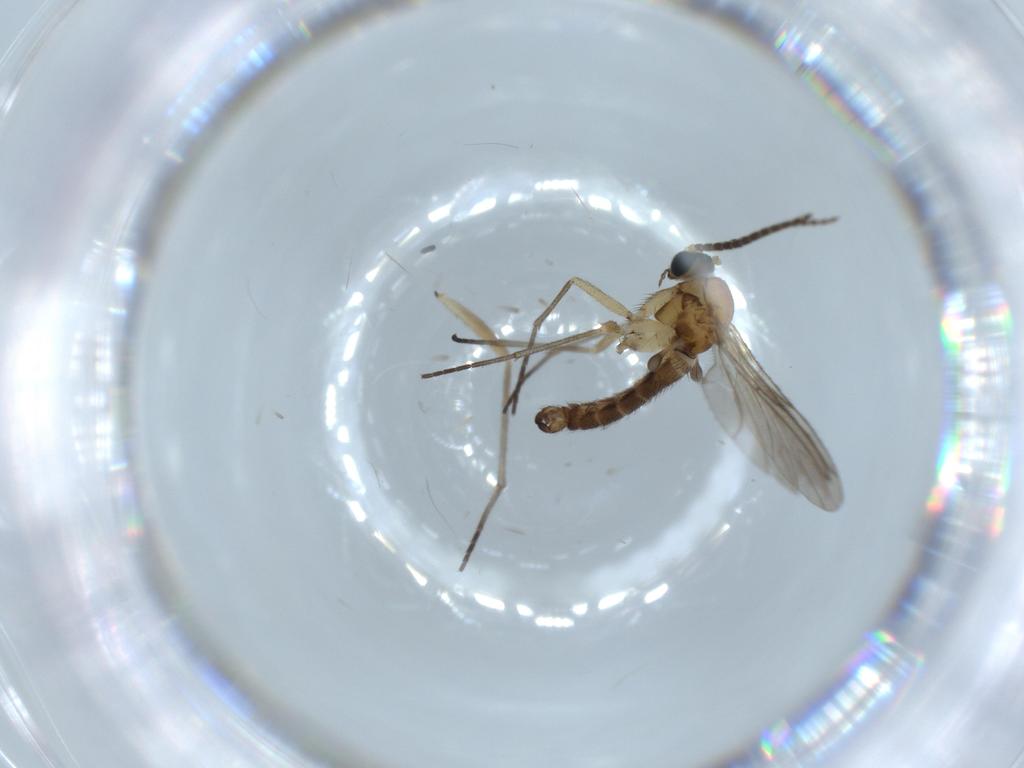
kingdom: Animalia
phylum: Arthropoda
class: Insecta
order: Diptera
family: Sciaridae
